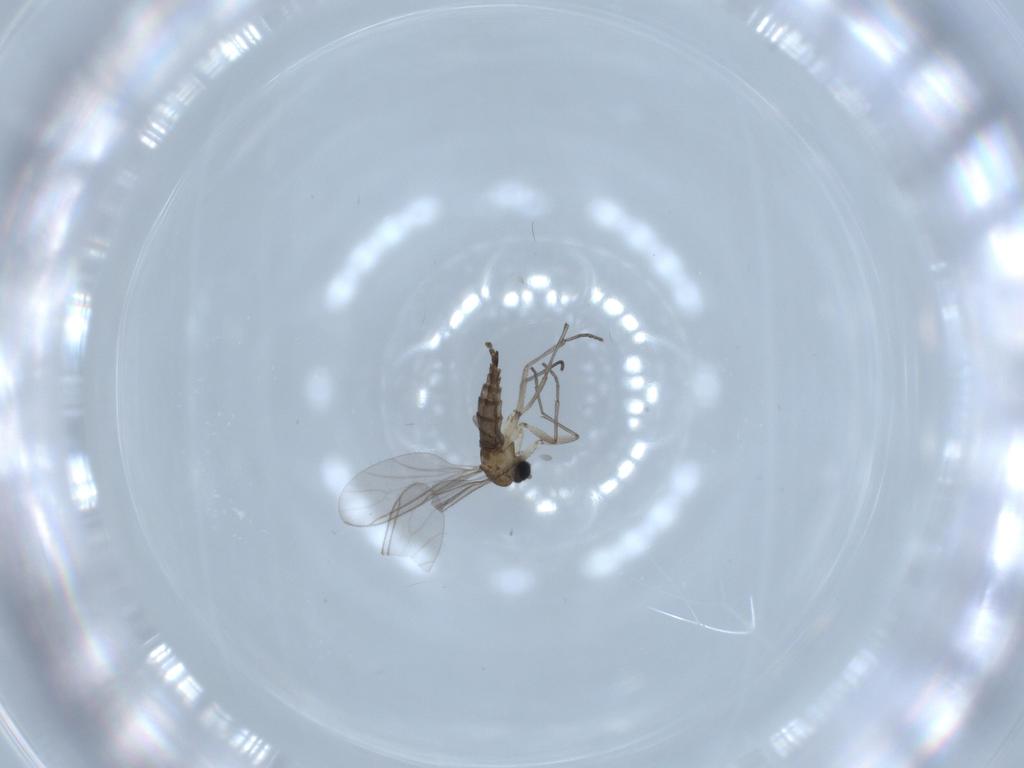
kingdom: Animalia
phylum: Arthropoda
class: Insecta
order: Diptera
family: Sciaridae
